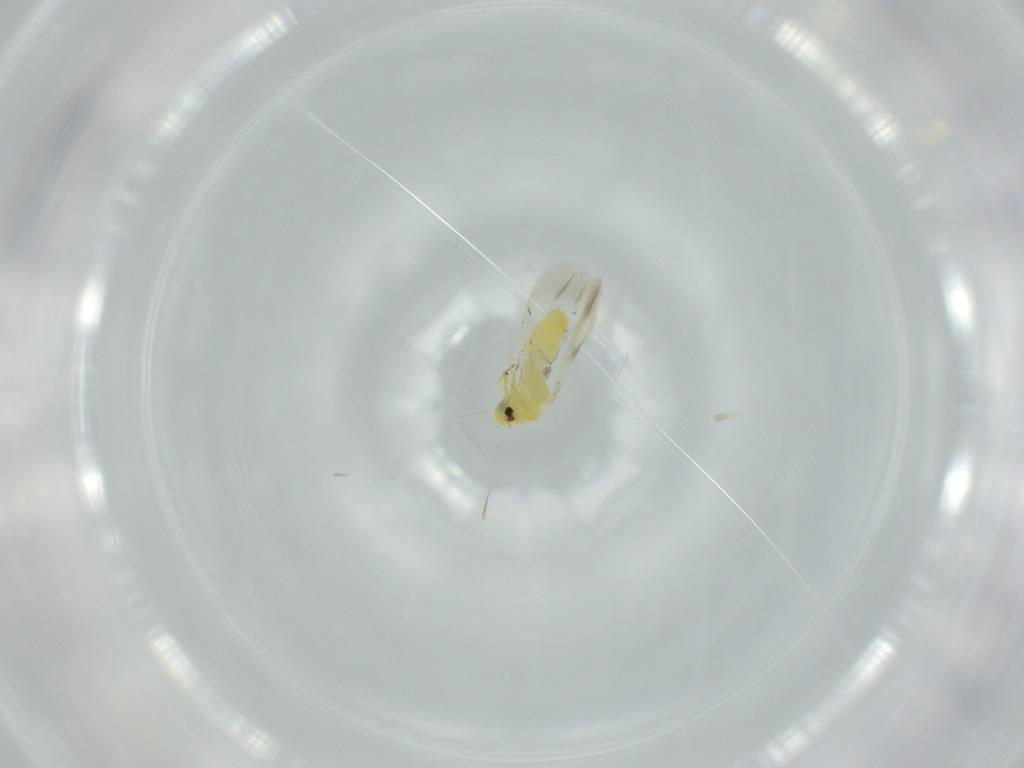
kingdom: Animalia
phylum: Arthropoda
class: Insecta
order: Hemiptera
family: Aleyrodidae
